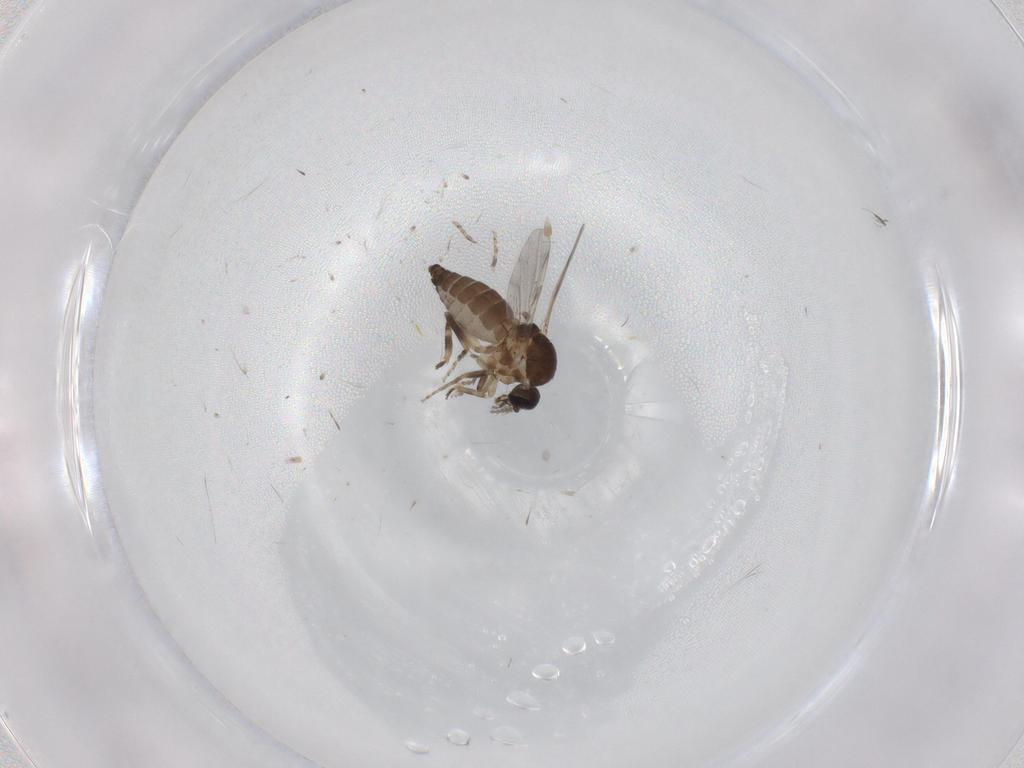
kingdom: Animalia
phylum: Arthropoda
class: Insecta
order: Diptera
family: Ceratopogonidae
